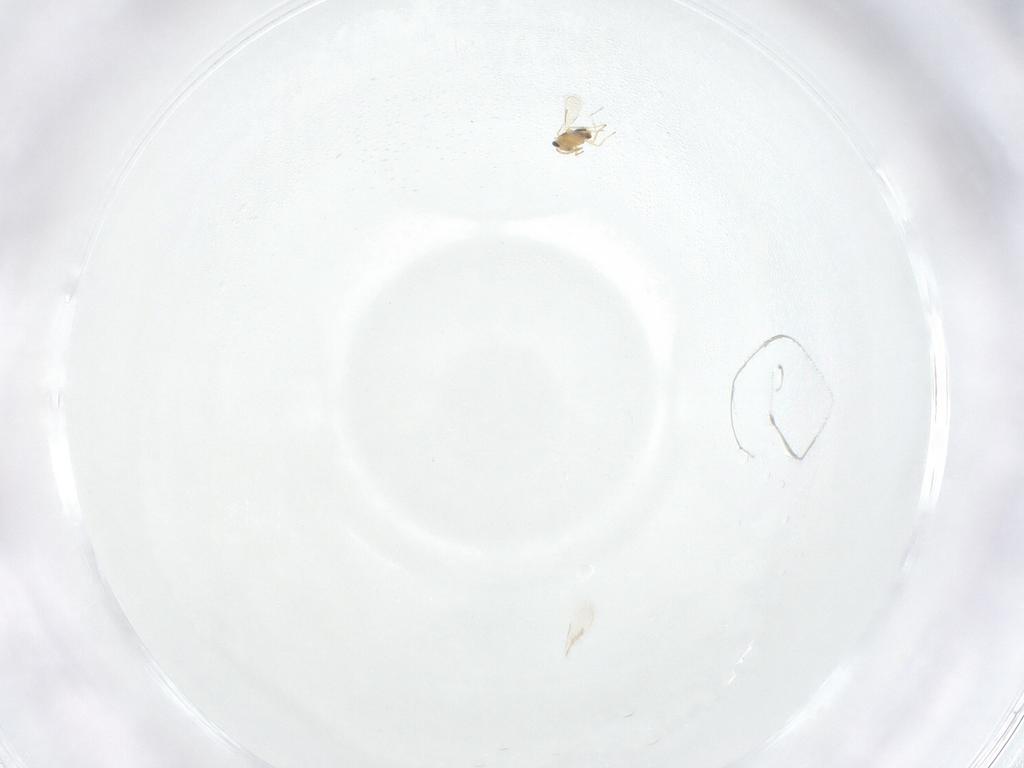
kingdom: Animalia
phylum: Arthropoda
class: Insecta
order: Hymenoptera
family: Aphelinidae
